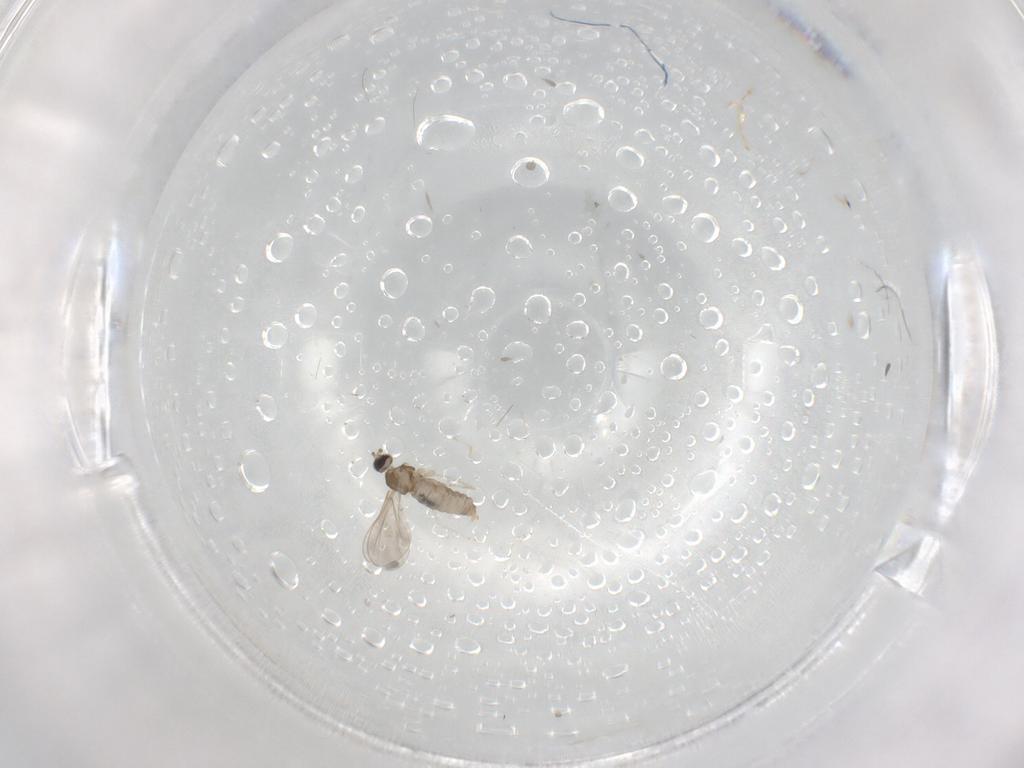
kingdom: Animalia
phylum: Arthropoda
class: Insecta
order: Diptera
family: Cecidomyiidae
